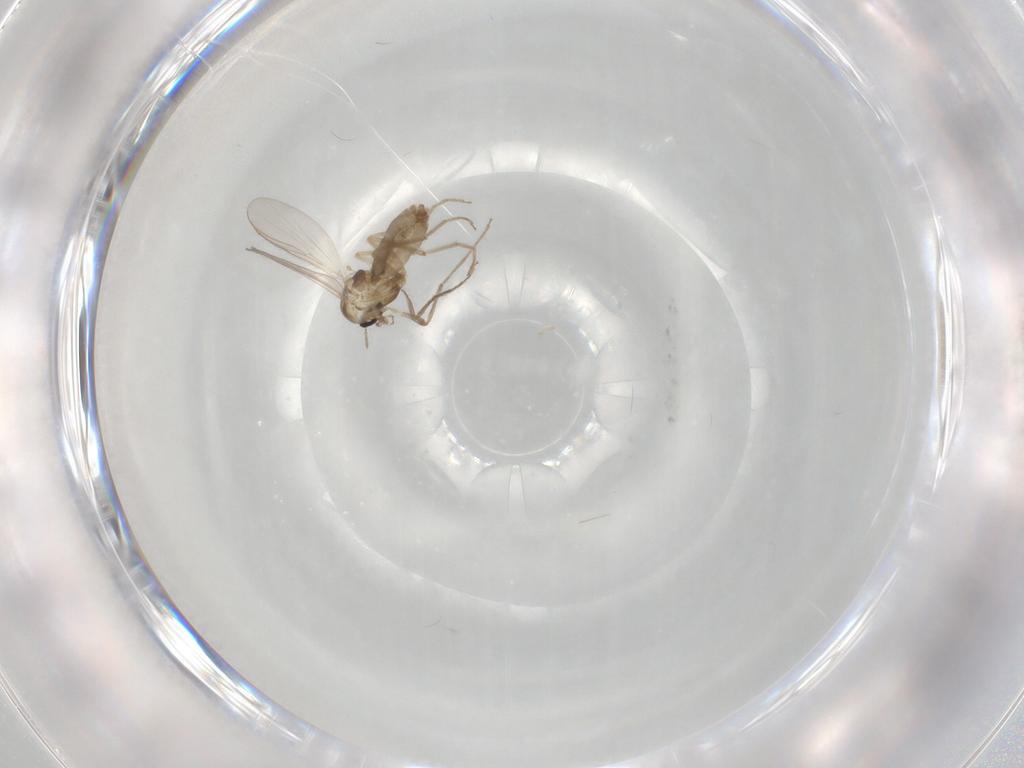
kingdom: Animalia
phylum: Arthropoda
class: Insecta
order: Diptera
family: Chironomidae
